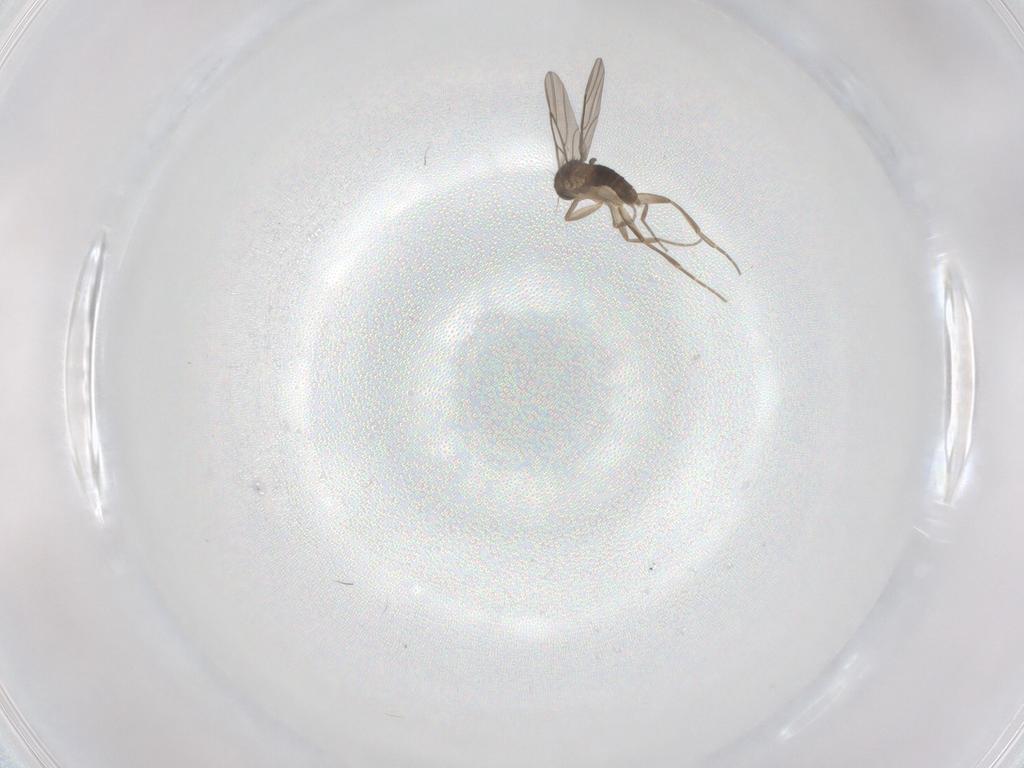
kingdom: Animalia
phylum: Arthropoda
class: Insecta
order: Diptera
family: Phoridae
